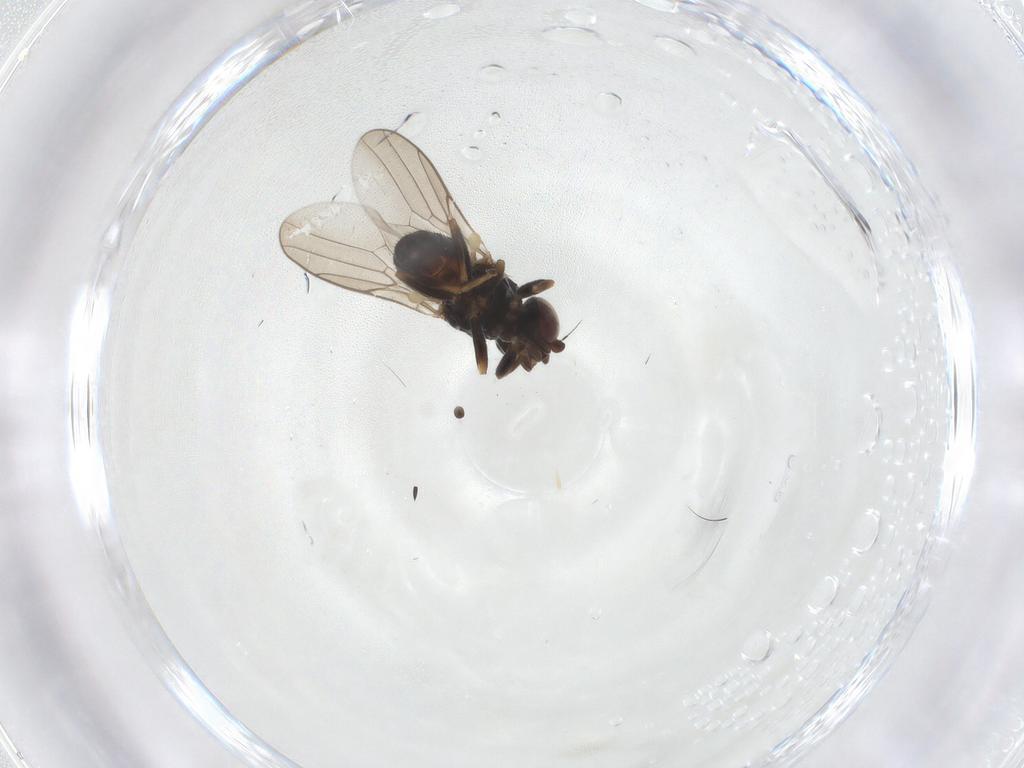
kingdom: Animalia
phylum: Arthropoda
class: Insecta
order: Diptera
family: Chloropidae
